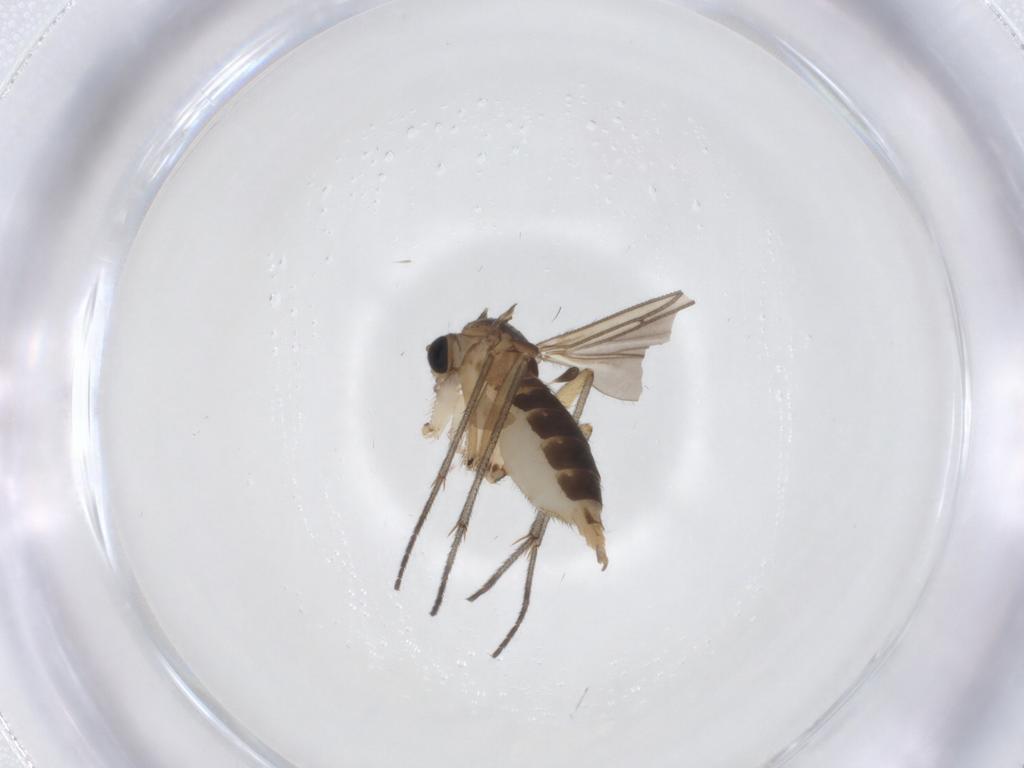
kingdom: Animalia
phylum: Arthropoda
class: Insecta
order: Diptera
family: Sciaridae
